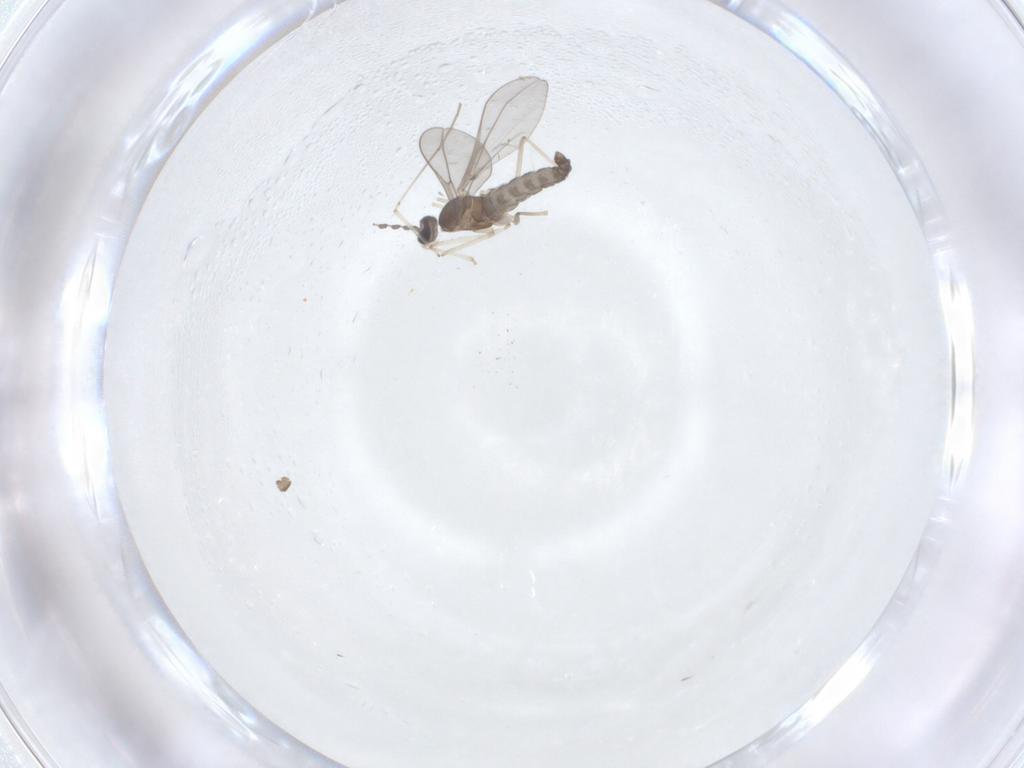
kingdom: Animalia
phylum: Arthropoda
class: Insecta
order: Diptera
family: Cecidomyiidae
